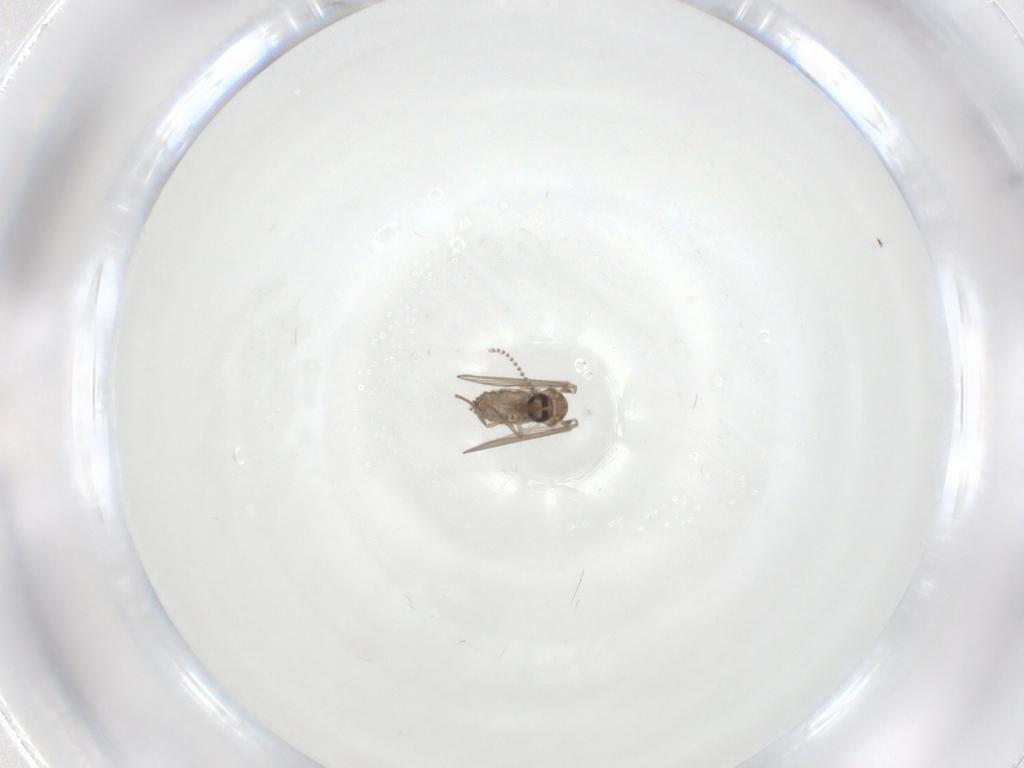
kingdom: Animalia
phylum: Arthropoda
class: Insecta
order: Diptera
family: Psychodidae
